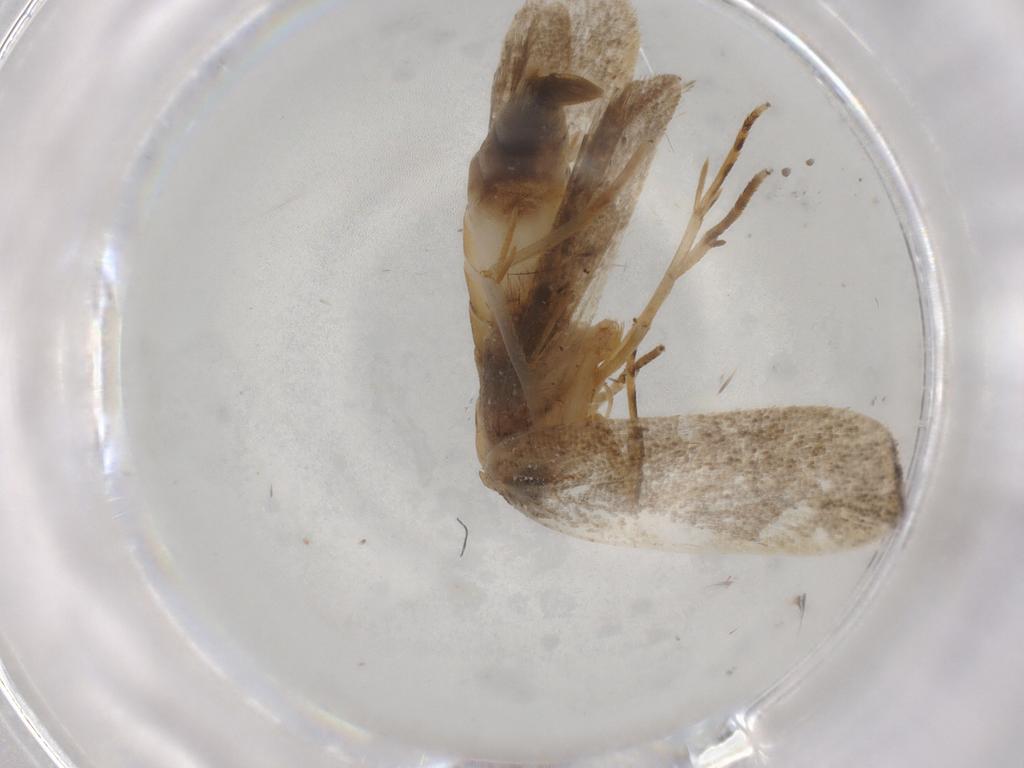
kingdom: Animalia
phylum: Arthropoda
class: Insecta
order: Lepidoptera
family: Autostichidae
